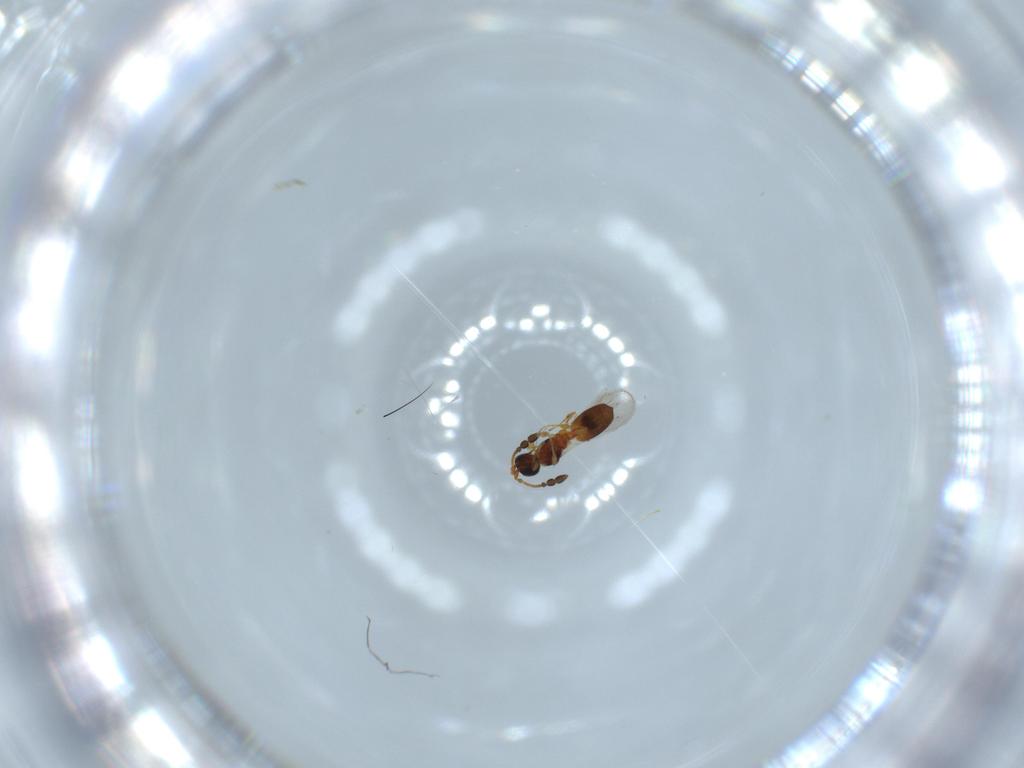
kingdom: Animalia
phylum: Arthropoda
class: Insecta
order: Hymenoptera
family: Diapriidae
